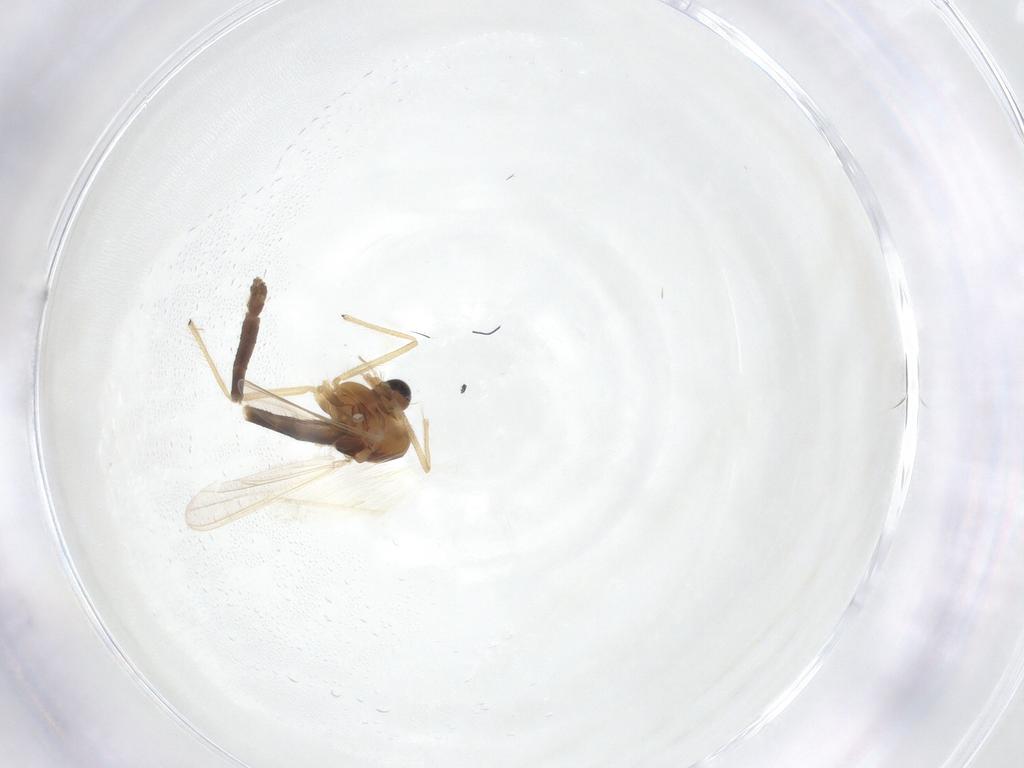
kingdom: Animalia
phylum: Arthropoda
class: Insecta
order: Diptera
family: Chironomidae
